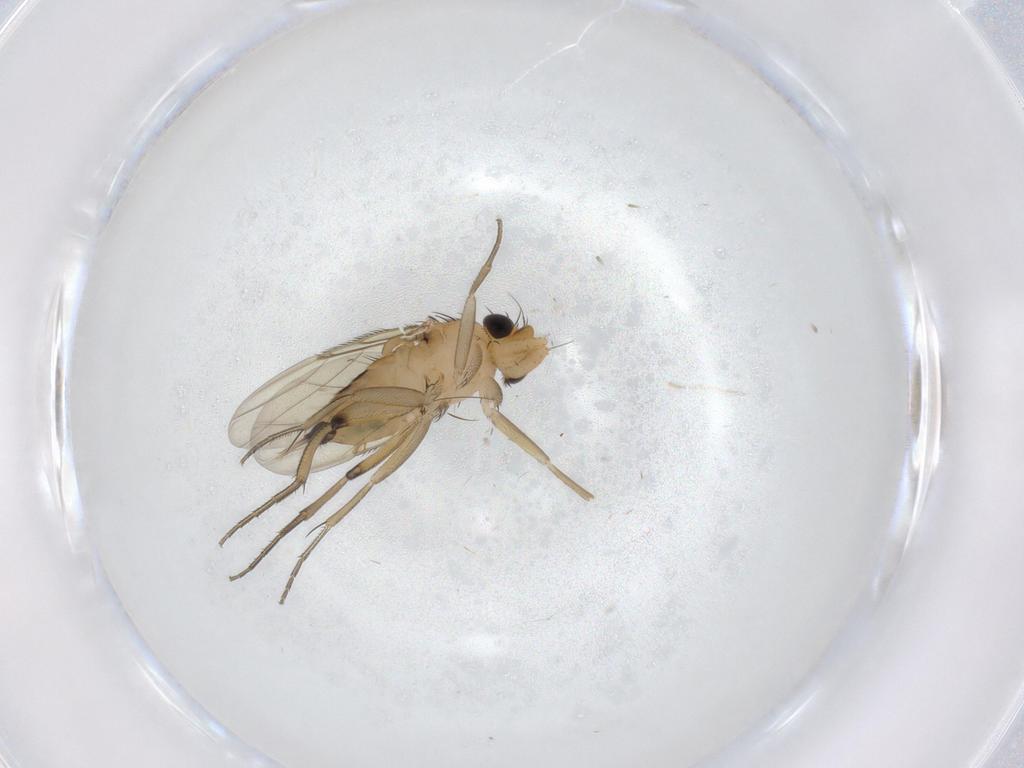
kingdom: Animalia
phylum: Arthropoda
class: Insecta
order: Diptera
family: Phoridae
